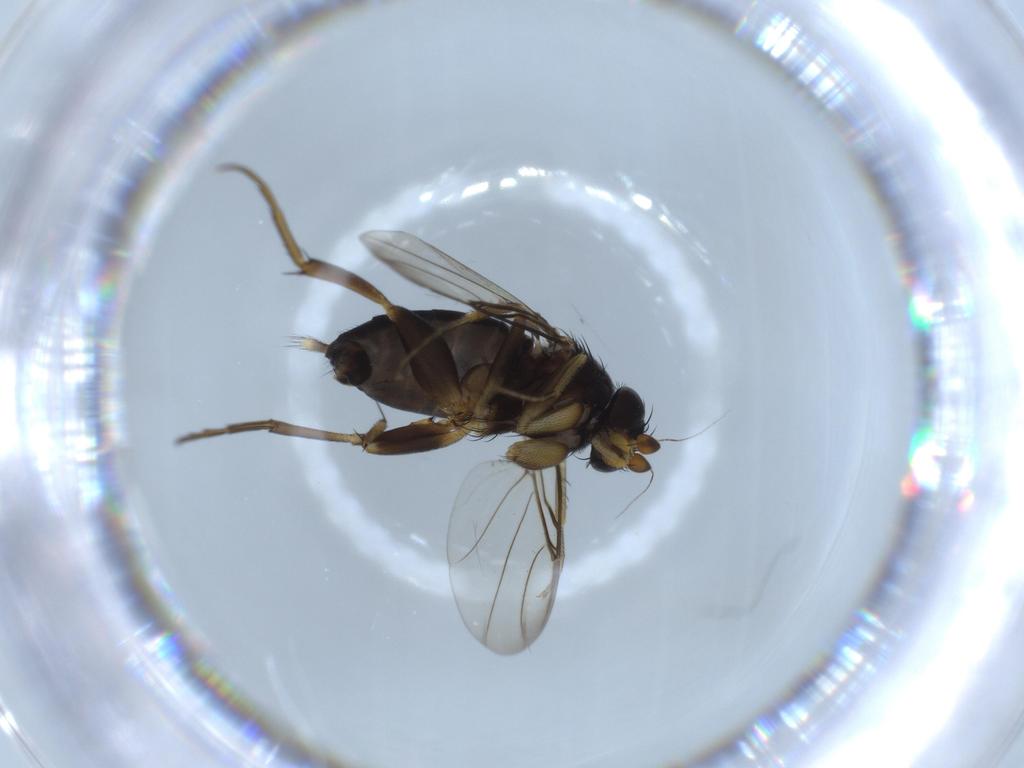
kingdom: Animalia
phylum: Arthropoda
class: Insecta
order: Diptera
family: Phoridae
